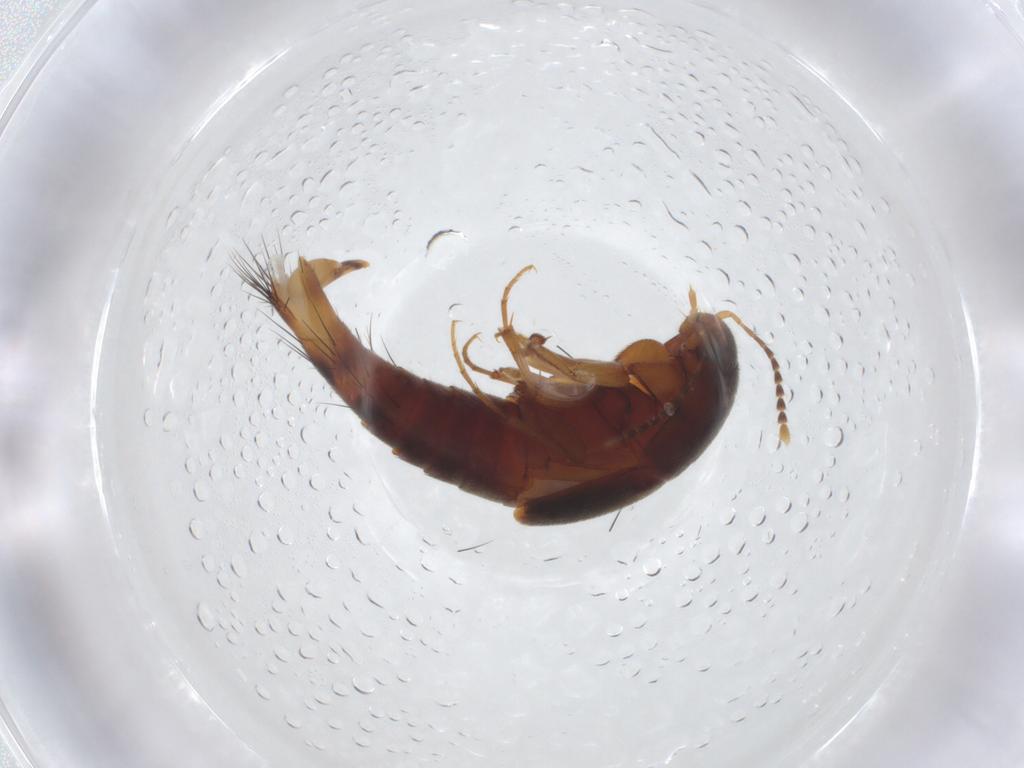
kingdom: Animalia
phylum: Arthropoda
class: Insecta
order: Coleoptera
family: Staphylinidae
